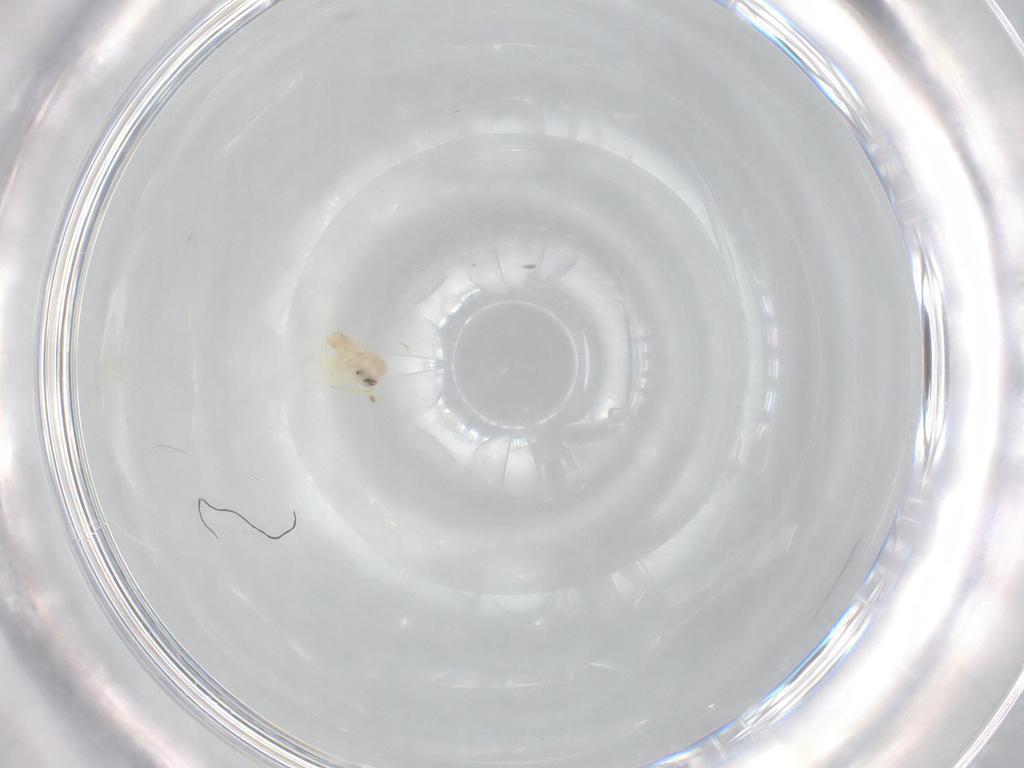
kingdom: Animalia
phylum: Arthropoda
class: Insecta
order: Hemiptera
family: Aleyrodidae
